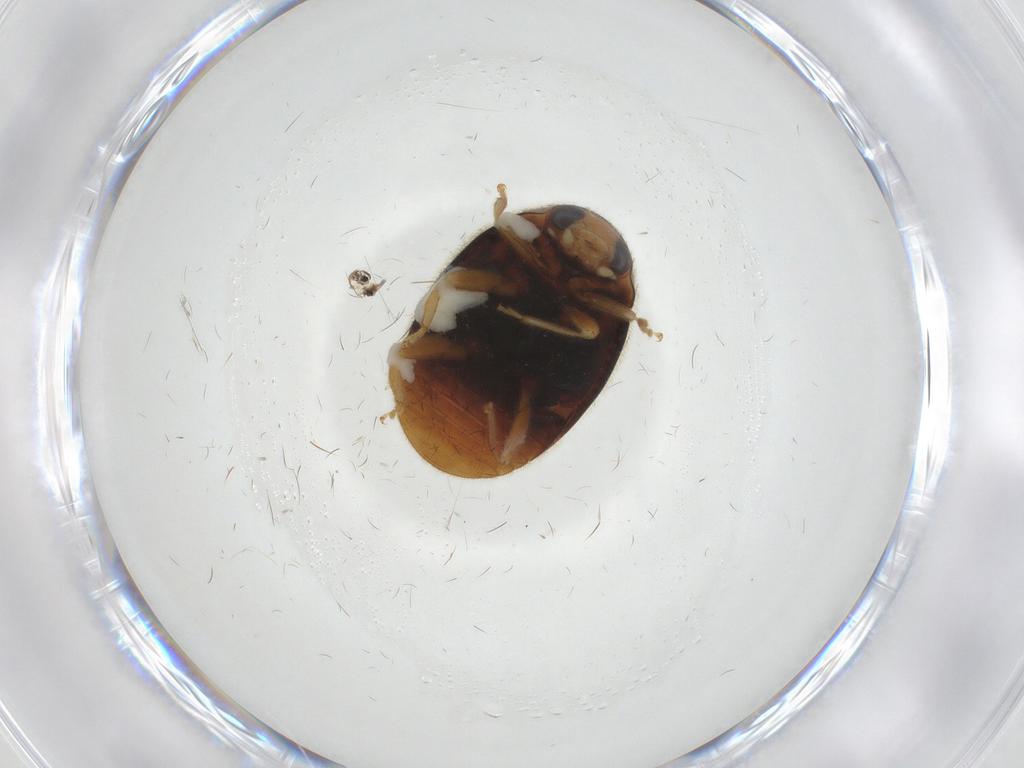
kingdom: Animalia
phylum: Arthropoda
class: Insecta
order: Coleoptera
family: Coccinellidae
